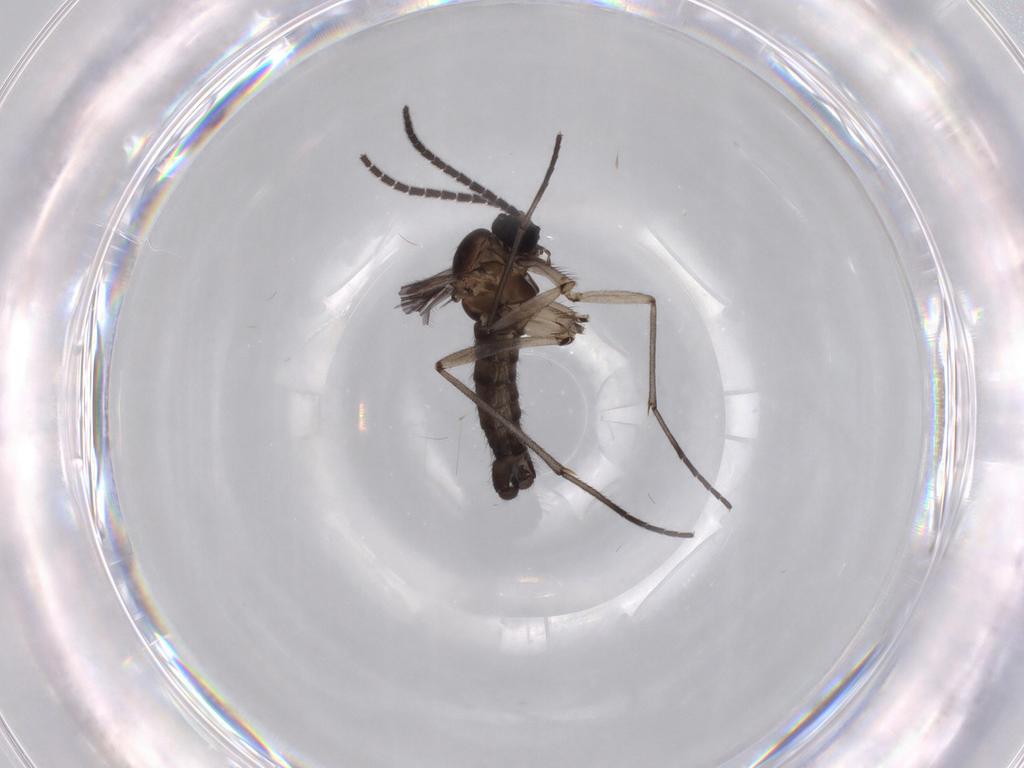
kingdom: Animalia
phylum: Arthropoda
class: Insecta
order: Diptera
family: Sciaridae
